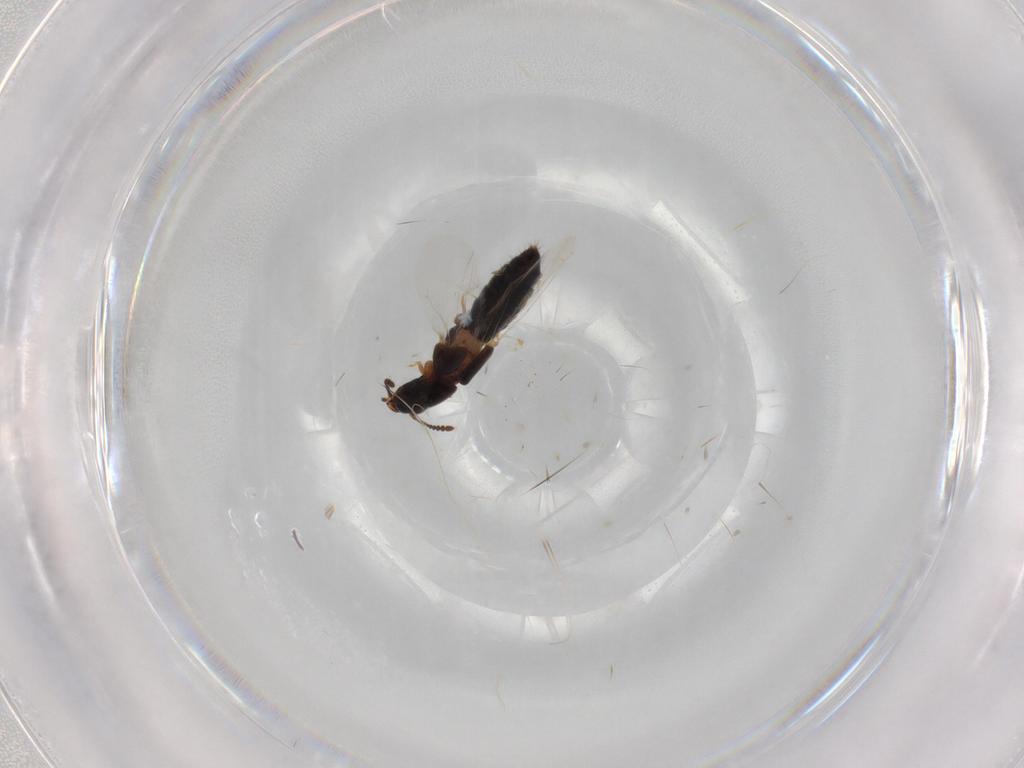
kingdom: Animalia
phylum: Arthropoda
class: Insecta
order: Coleoptera
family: Staphylinidae
